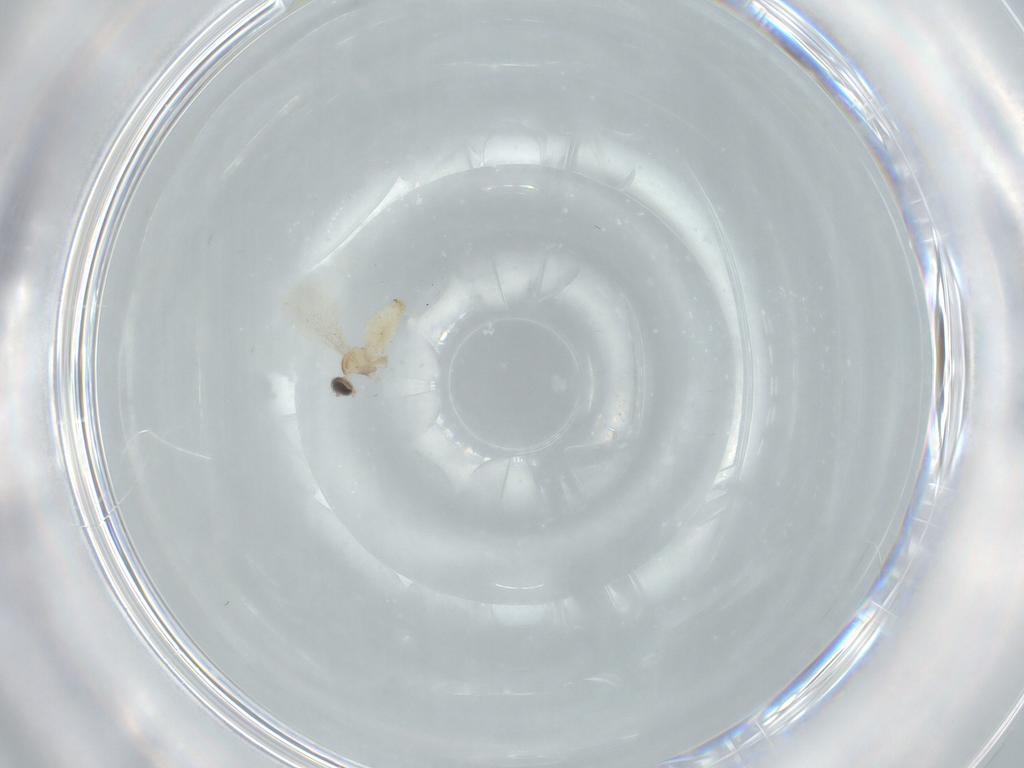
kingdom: Animalia
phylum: Arthropoda
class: Insecta
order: Diptera
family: Cecidomyiidae
